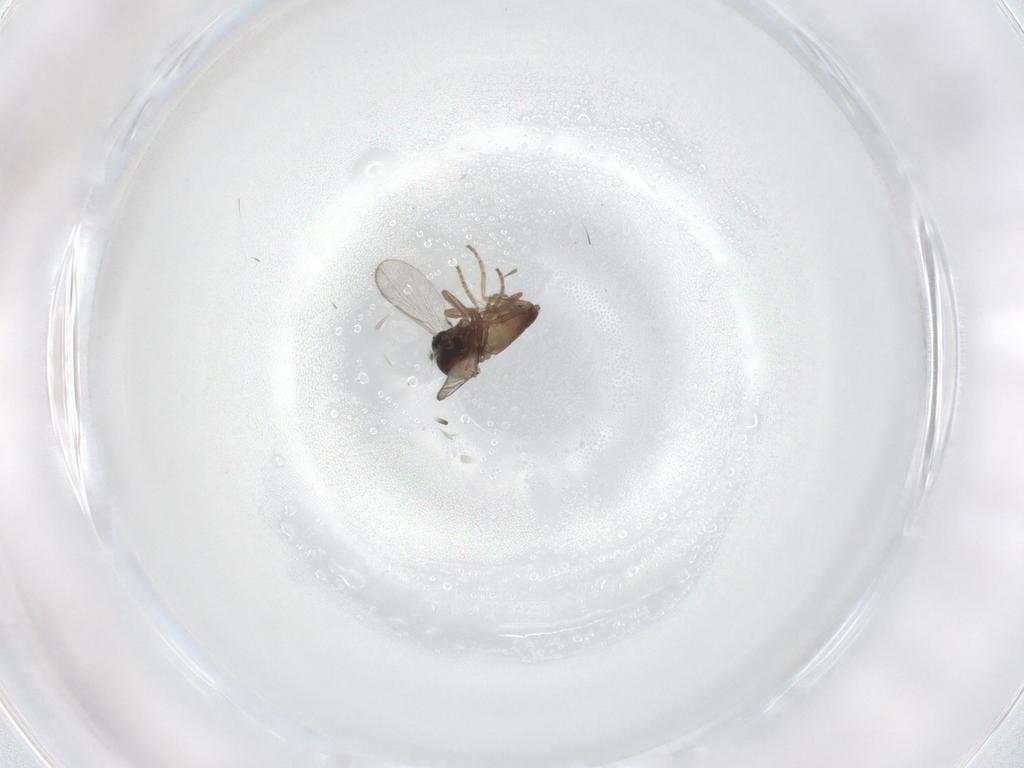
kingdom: Animalia
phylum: Arthropoda
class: Insecta
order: Diptera
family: Ceratopogonidae
